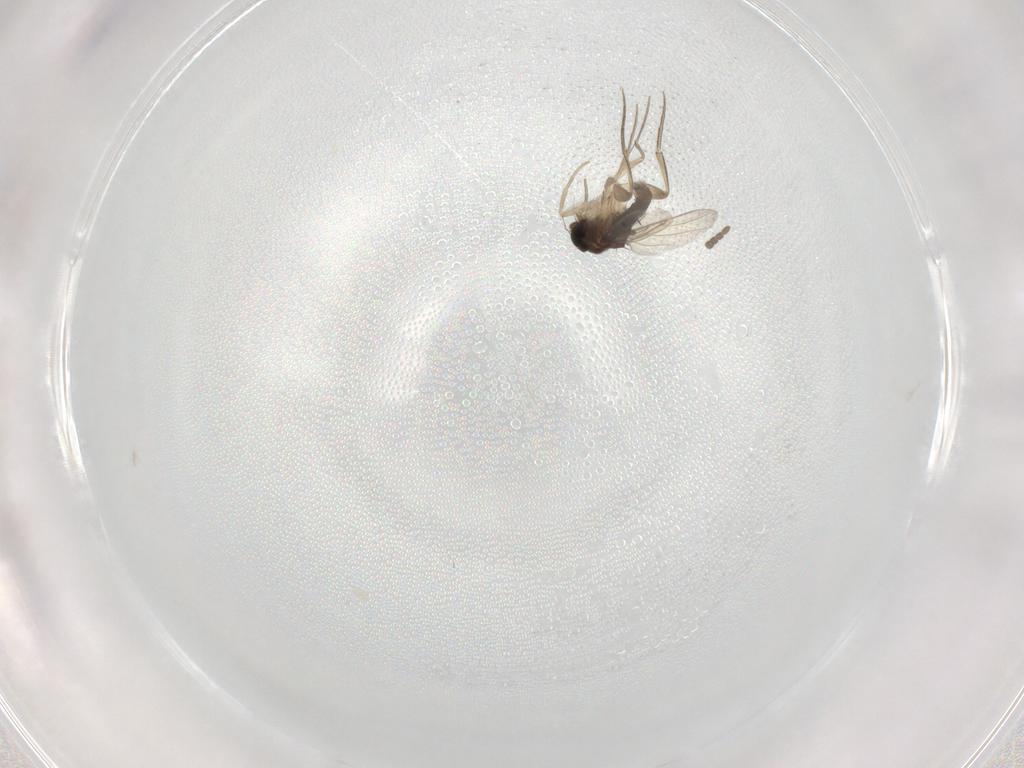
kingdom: Animalia
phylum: Arthropoda
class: Insecta
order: Diptera
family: Phoridae
